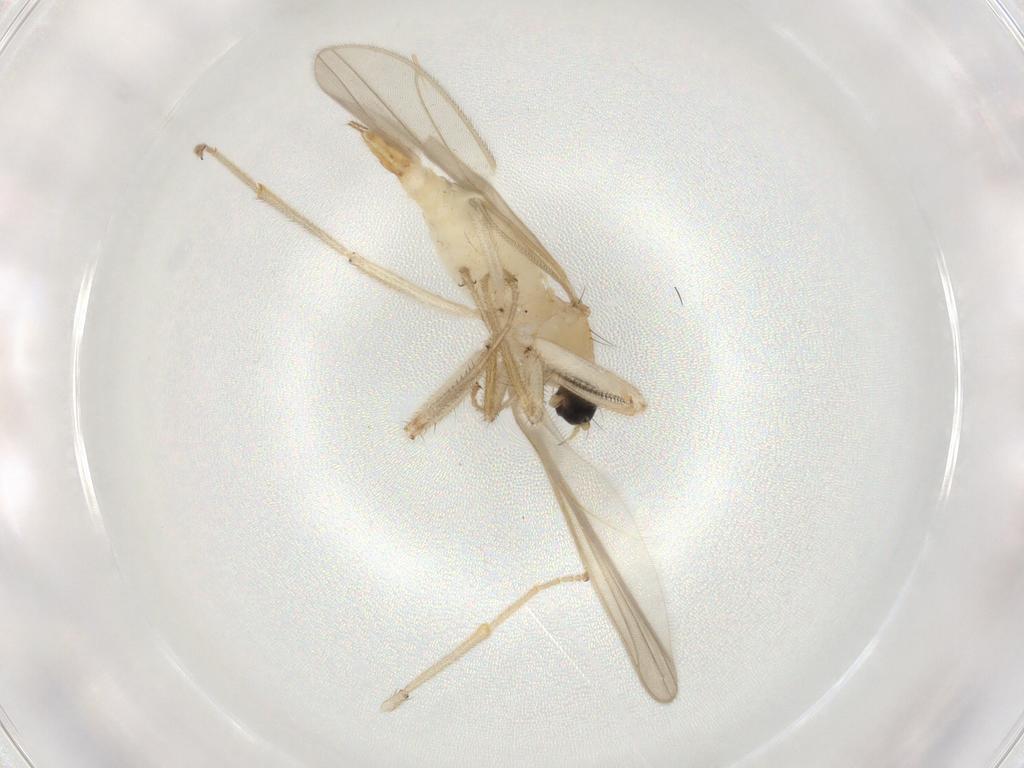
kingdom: Animalia
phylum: Arthropoda
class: Insecta
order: Diptera
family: Hybotidae
